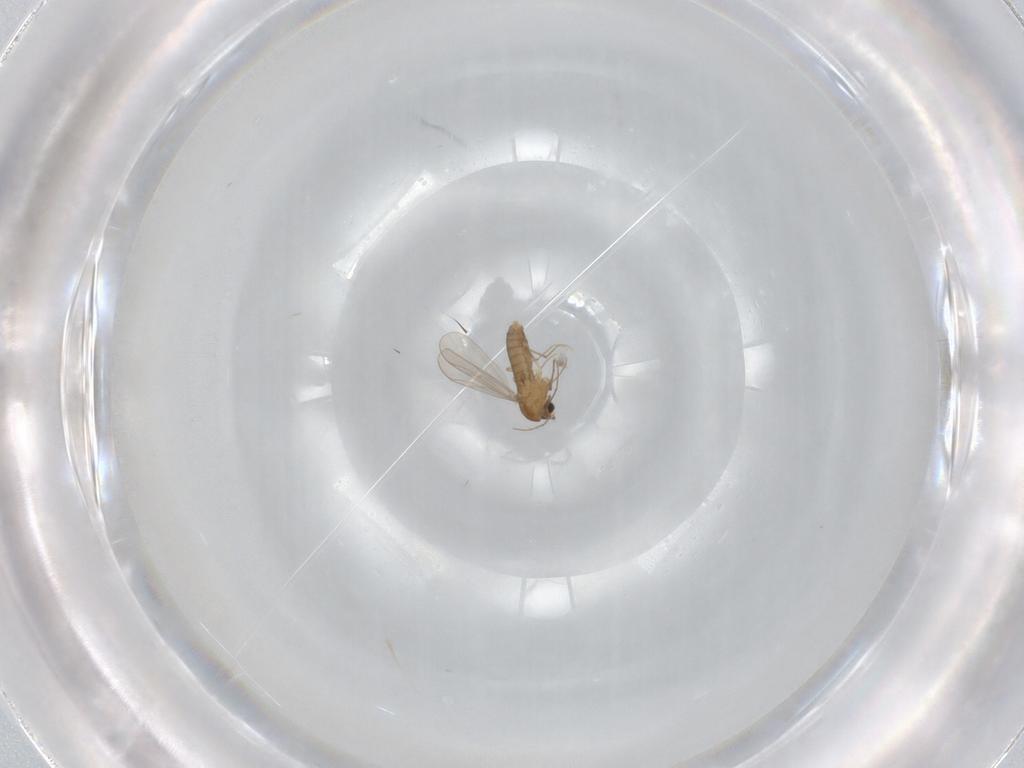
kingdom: Animalia
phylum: Arthropoda
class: Insecta
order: Diptera
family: Chironomidae
